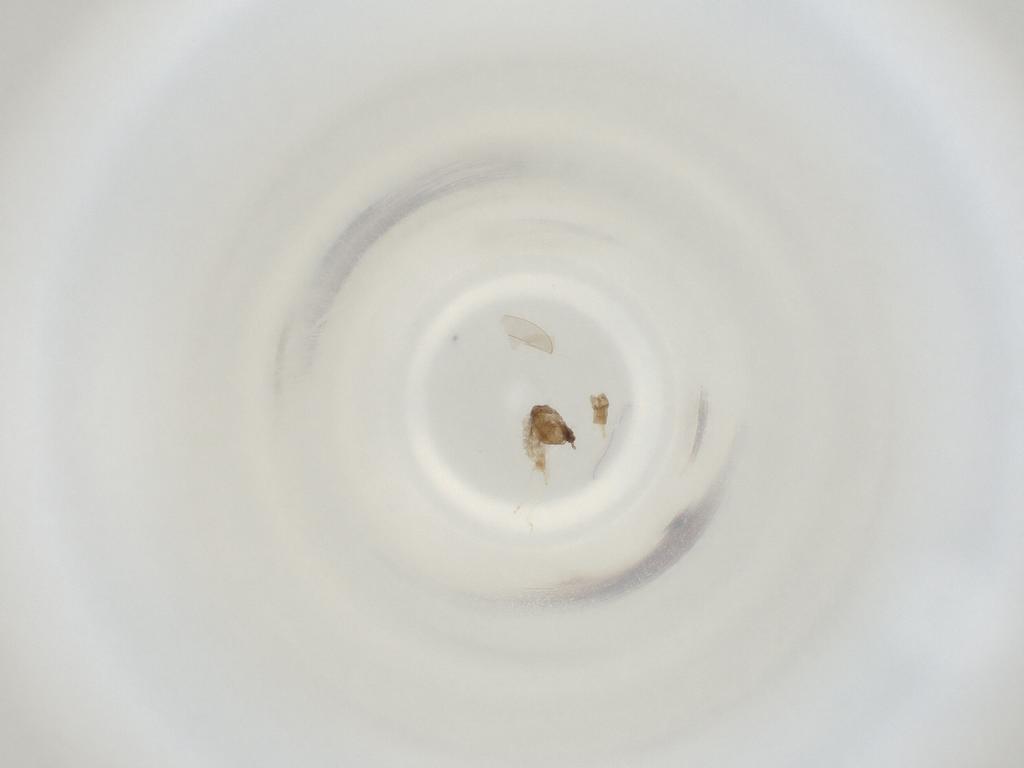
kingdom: Animalia
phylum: Arthropoda
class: Insecta
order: Diptera
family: Cecidomyiidae
